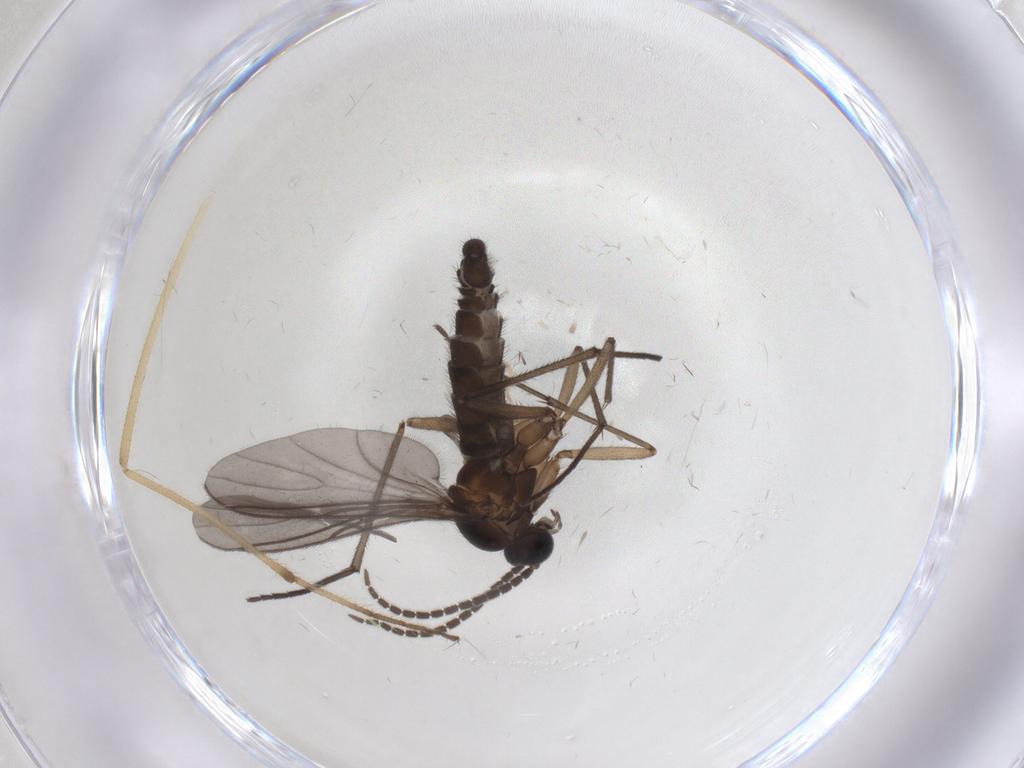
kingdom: Animalia
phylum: Arthropoda
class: Insecta
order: Diptera
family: Sciaridae
